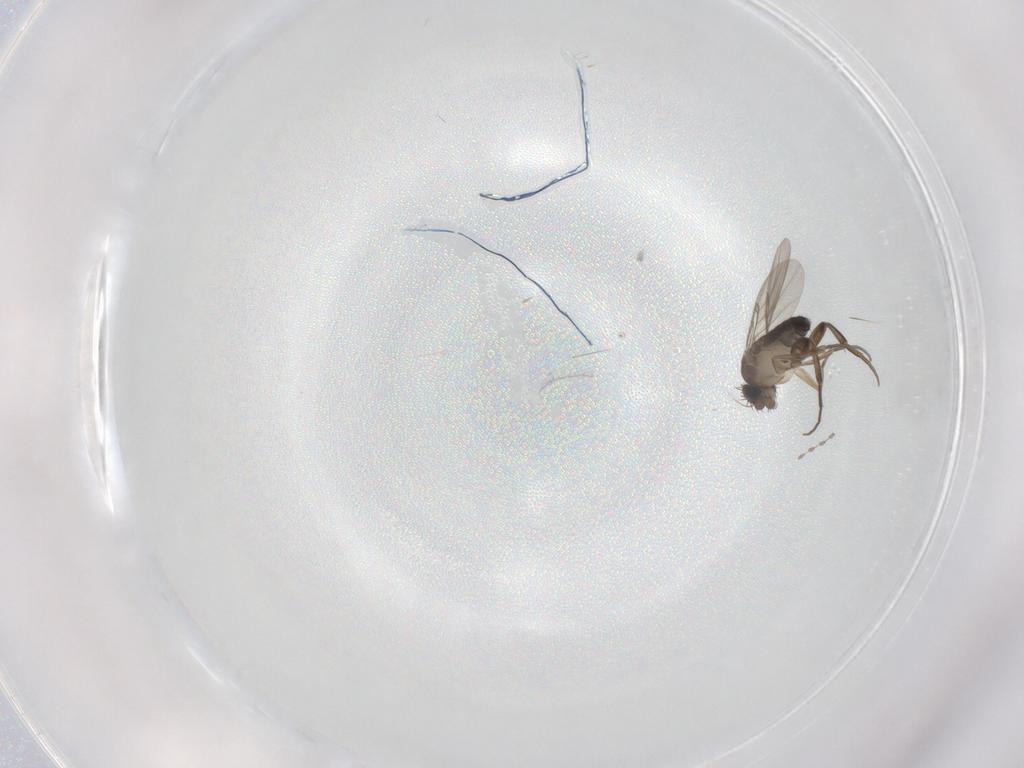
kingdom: Animalia
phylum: Arthropoda
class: Insecta
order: Diptera
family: Phoridae
